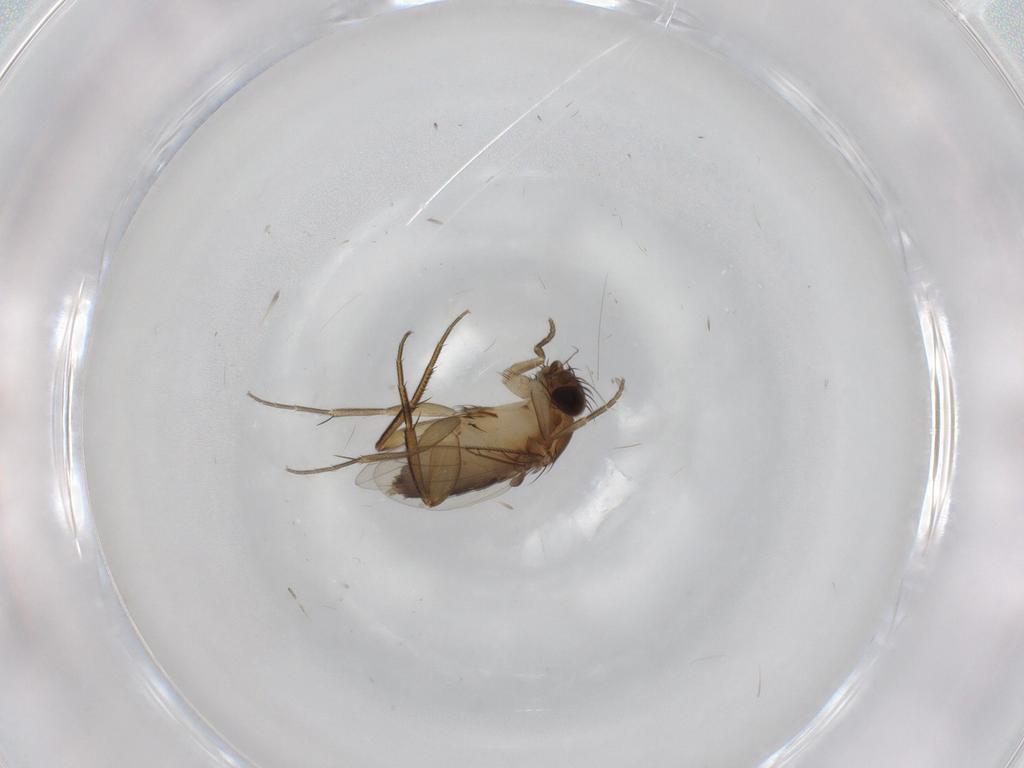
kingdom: Animalia
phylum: Arthropoda
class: Insecta
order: Diptera
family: Phoridae
